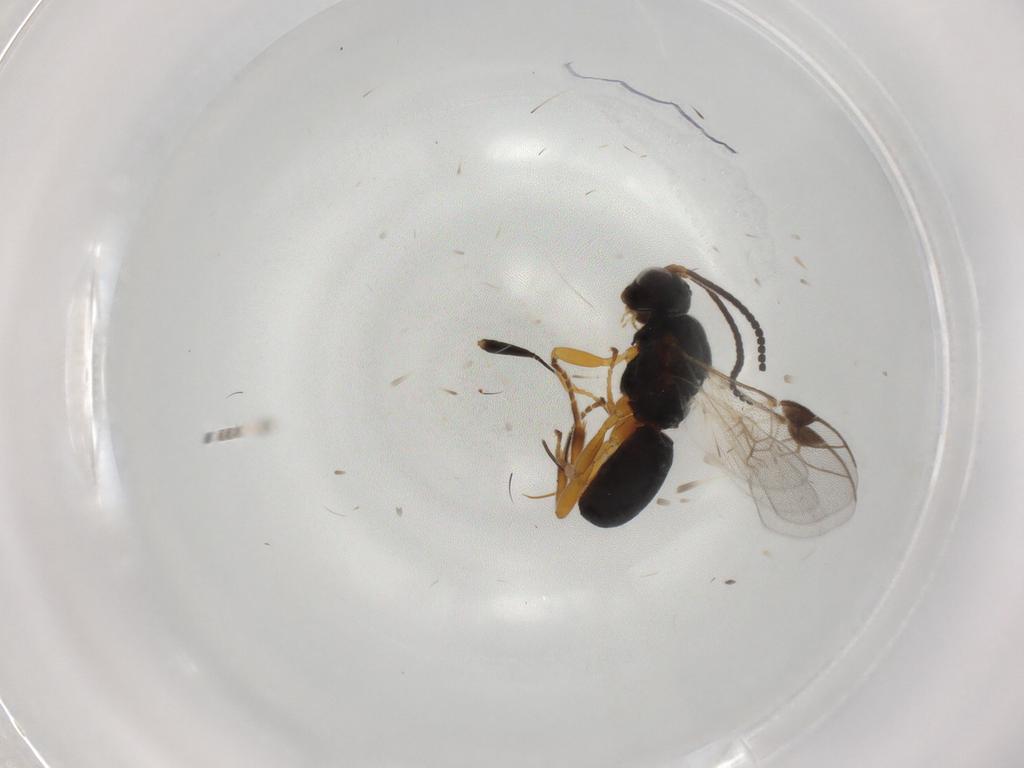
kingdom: Animalia
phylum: Arthropoda
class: Insecta
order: Hymenoptera
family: Braconidae
